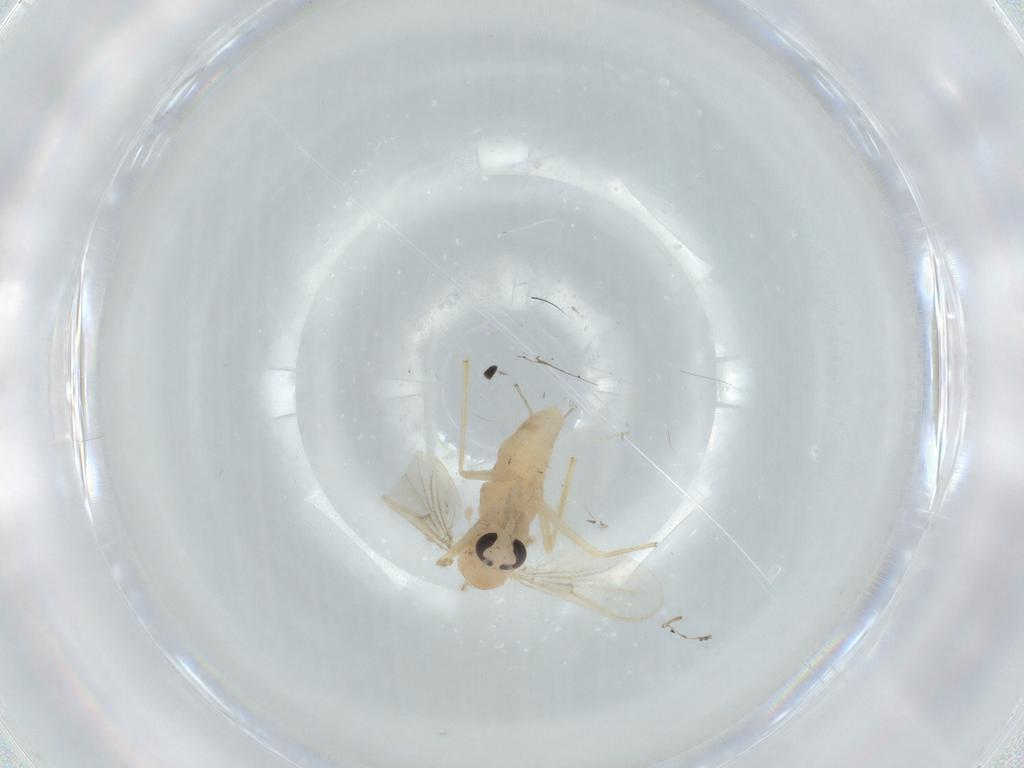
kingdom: Animalia
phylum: Arthropoda
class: Insecta
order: Diptera
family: Chironomidae
